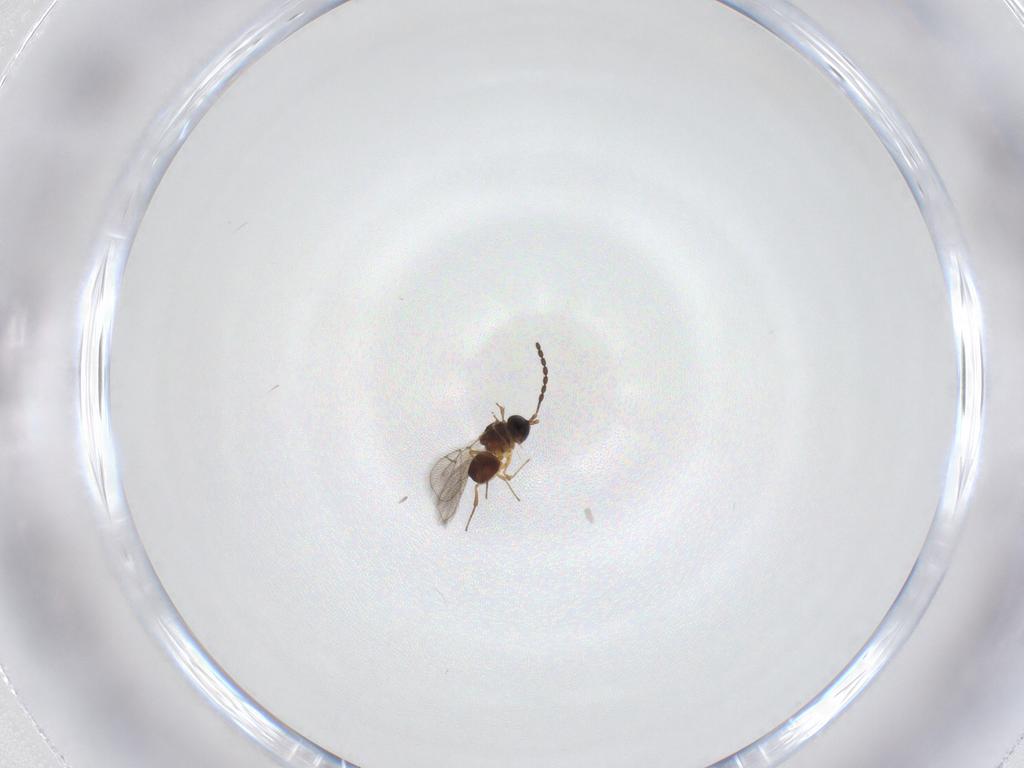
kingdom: Animalia
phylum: Arthropoda
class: Insecta
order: Hymenoptera
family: Figitidae
